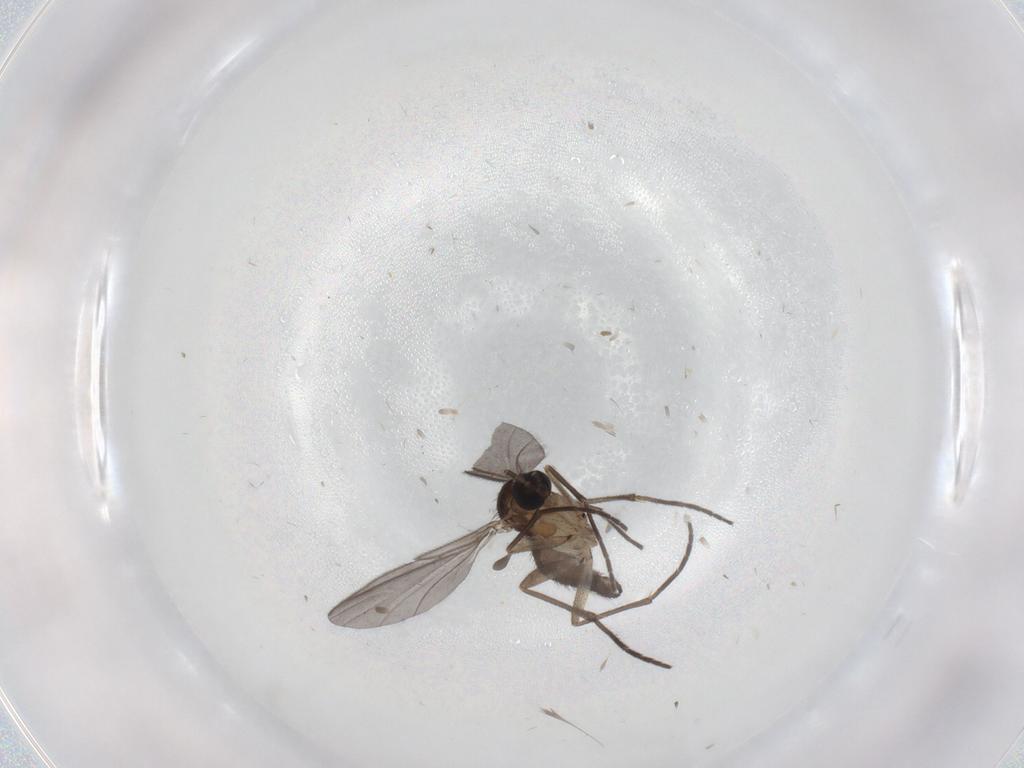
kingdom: Animalia
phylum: Arthropoda
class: Insecta
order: Diptera
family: Sciaridae
